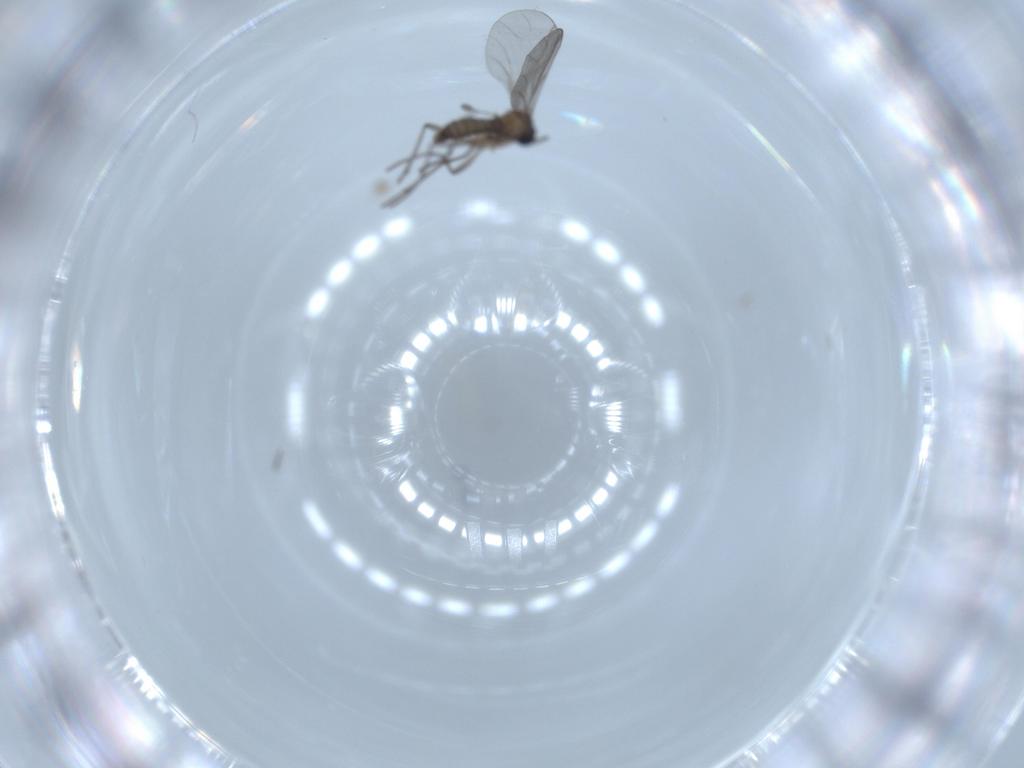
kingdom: Animalia
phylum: Arthropoda
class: Insecta
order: Diptera
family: Sciaridae
